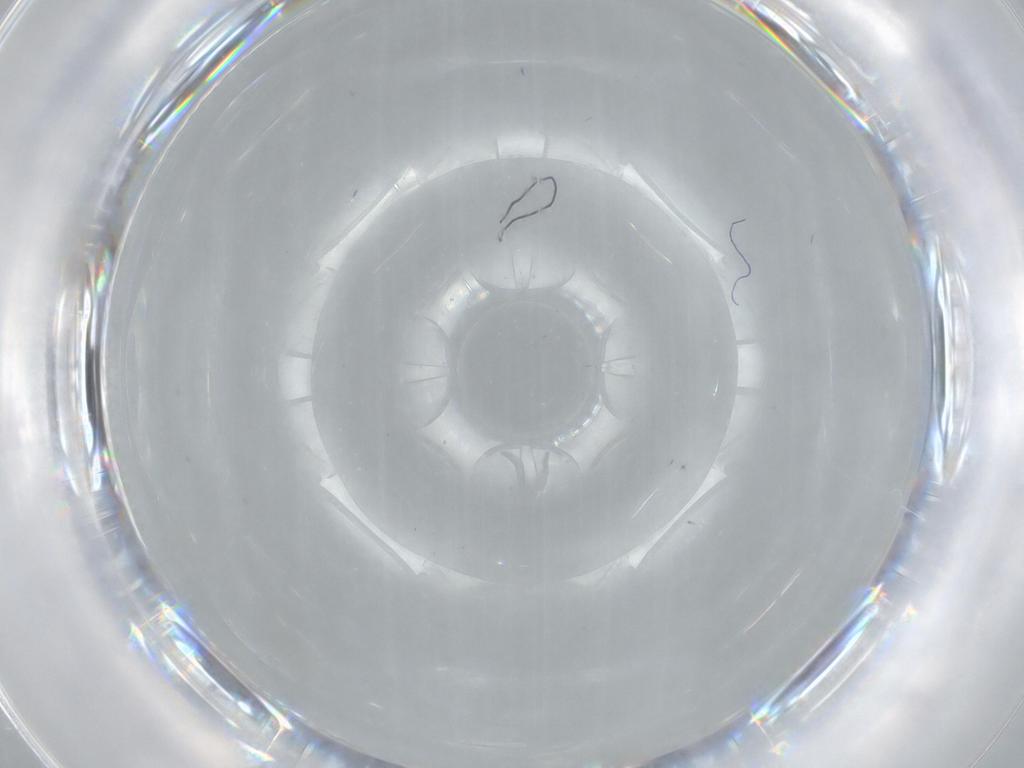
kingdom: Animalia
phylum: Arthropoda
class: Insecta
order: Hymenoptera
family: Aphelinidae
